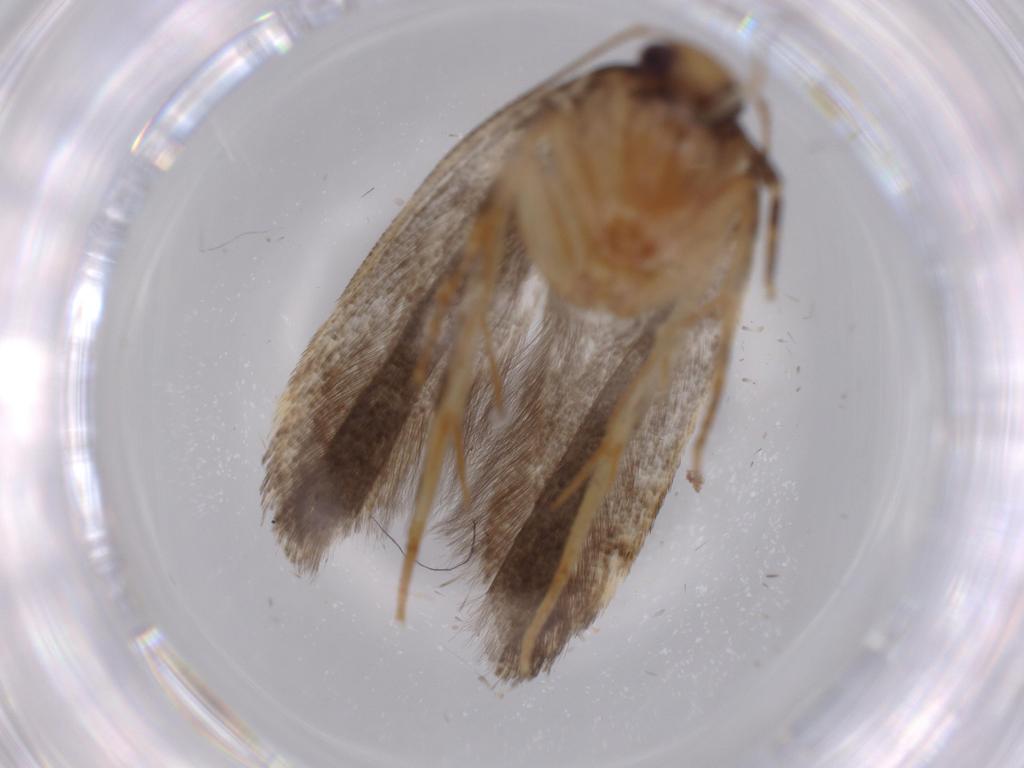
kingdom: Animalia
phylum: Arthropoda
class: Insecta
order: Lepidoptera
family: Bucculatricidae
